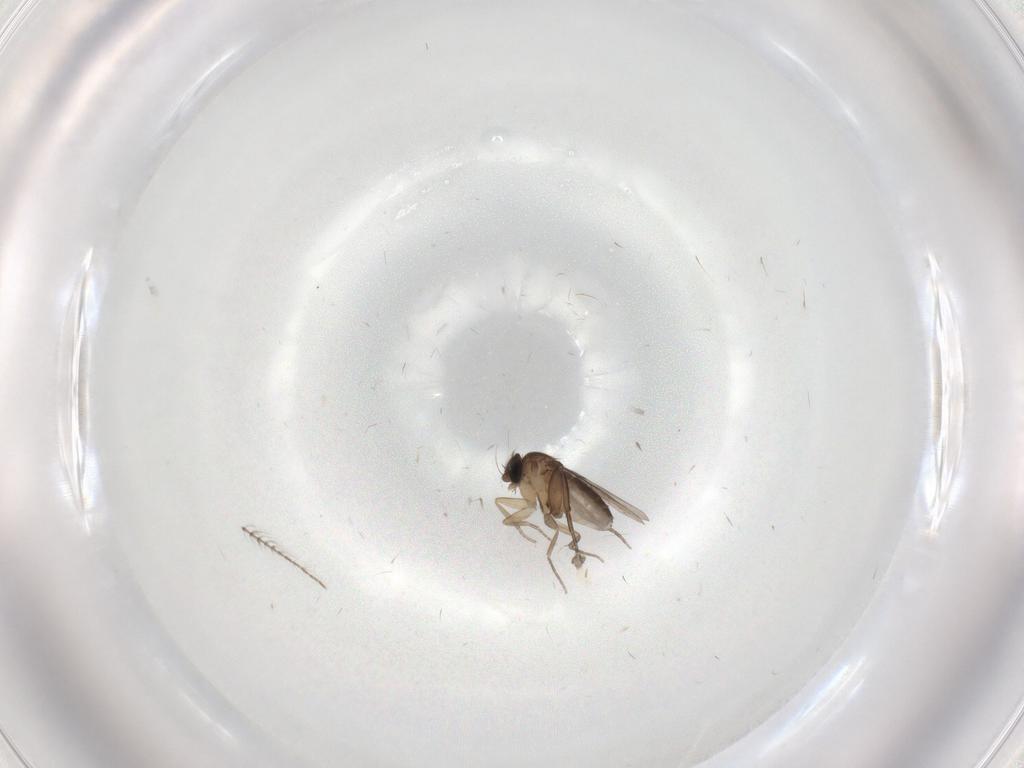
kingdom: Animalia
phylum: Arthropoda
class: Insecta
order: Diptera
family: Phoridae
